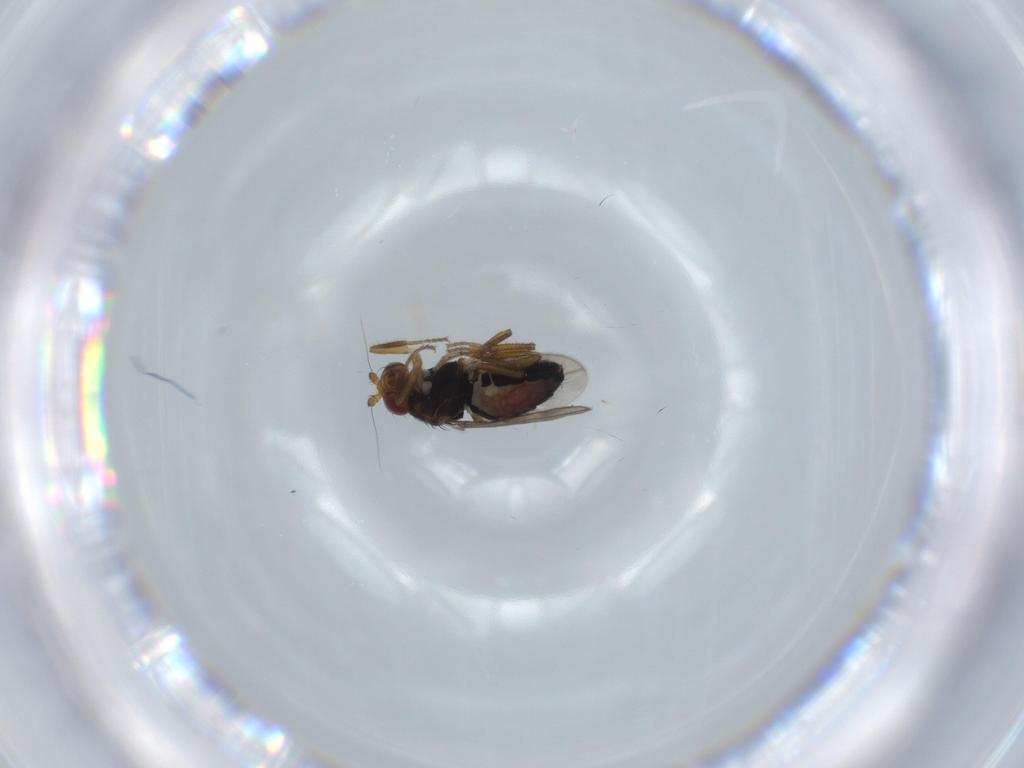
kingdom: Animalia
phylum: Arthropoda
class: Insecta
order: Diptera
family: Sphaeroceridae
